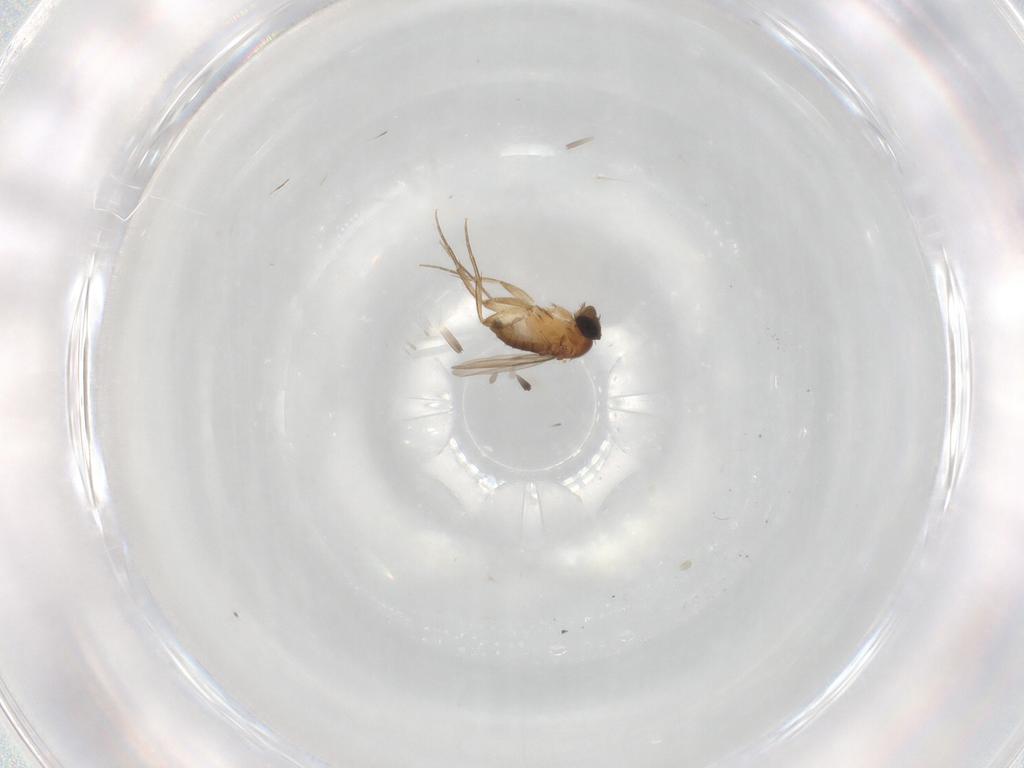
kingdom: Animalia
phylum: Arthropoda
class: Insecta
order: Diptera
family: Phoridae
